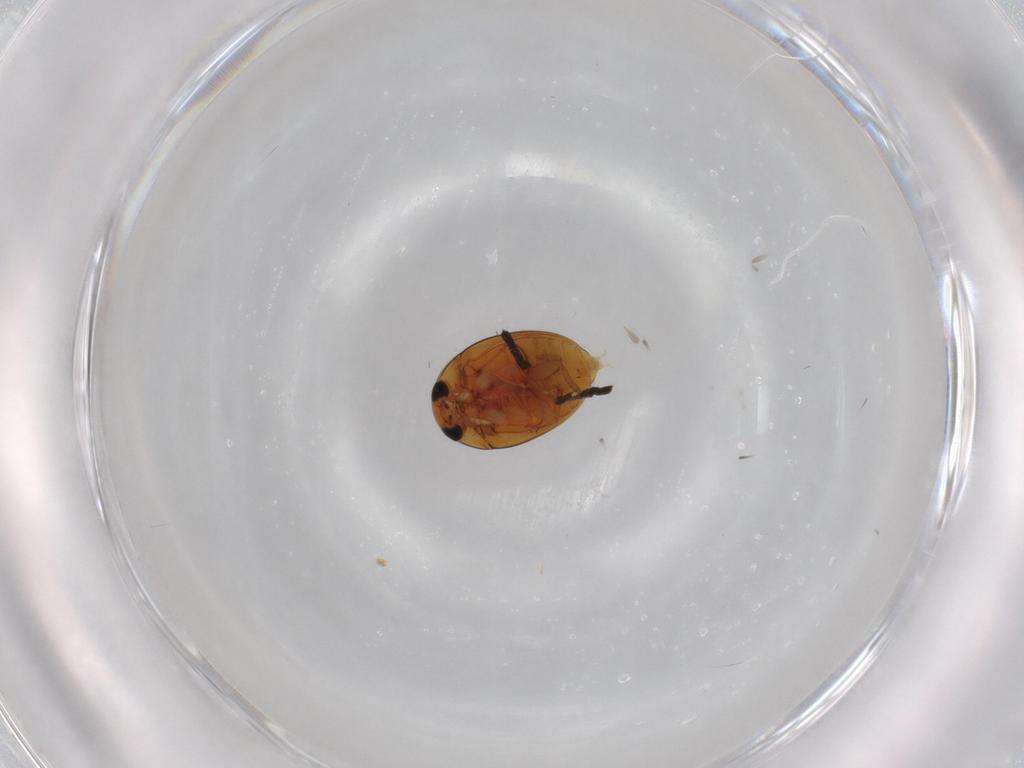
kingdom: Animalia
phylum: Arthropoda
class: Insecta
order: Coleoptera
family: Phalacridae
